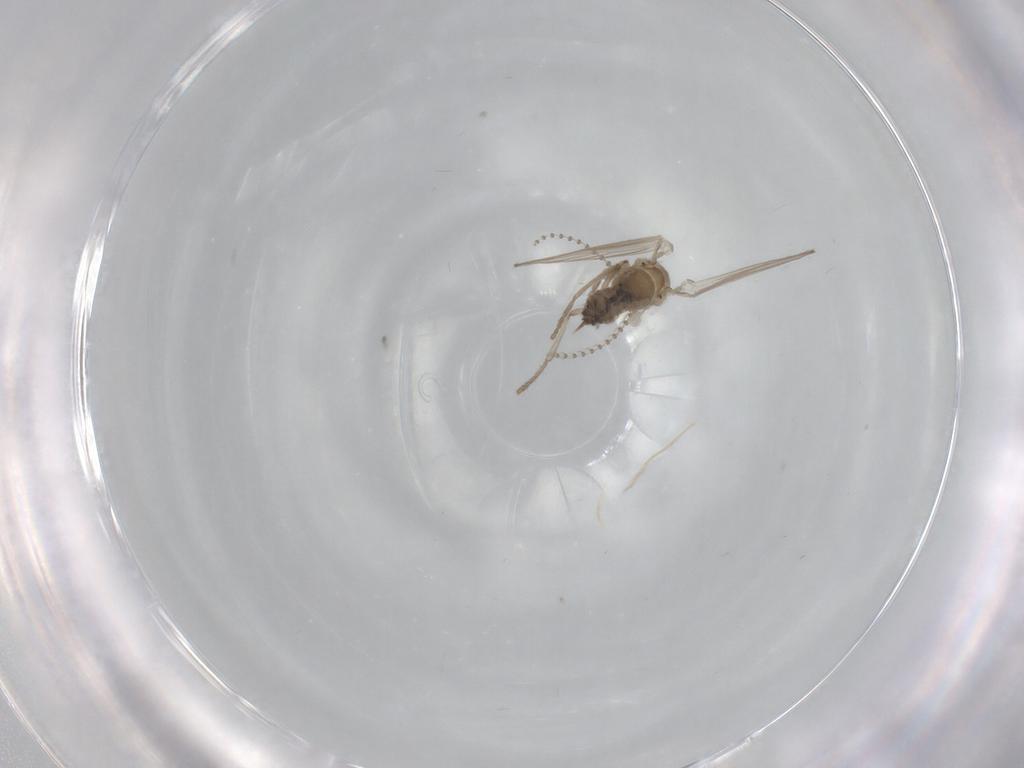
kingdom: Animalia
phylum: Arthropoda
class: Insecta
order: Diptera
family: Psychodidae
